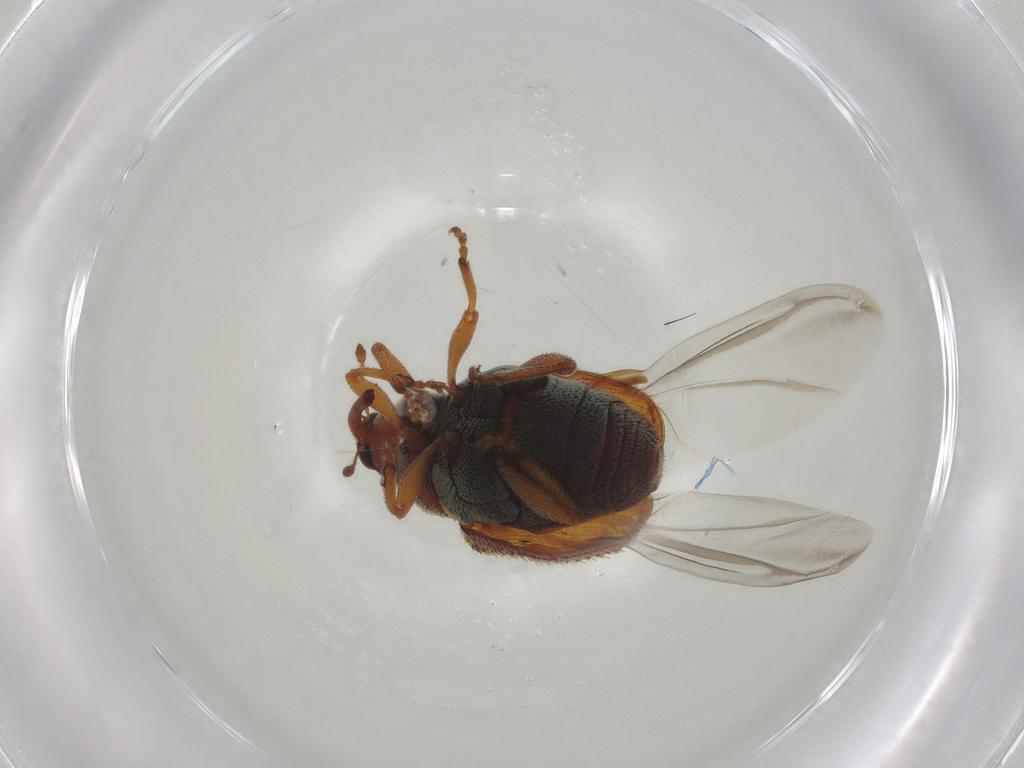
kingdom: Animalia
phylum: Arthropoda
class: Insecta
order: Coleoptera
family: Curculionidae
